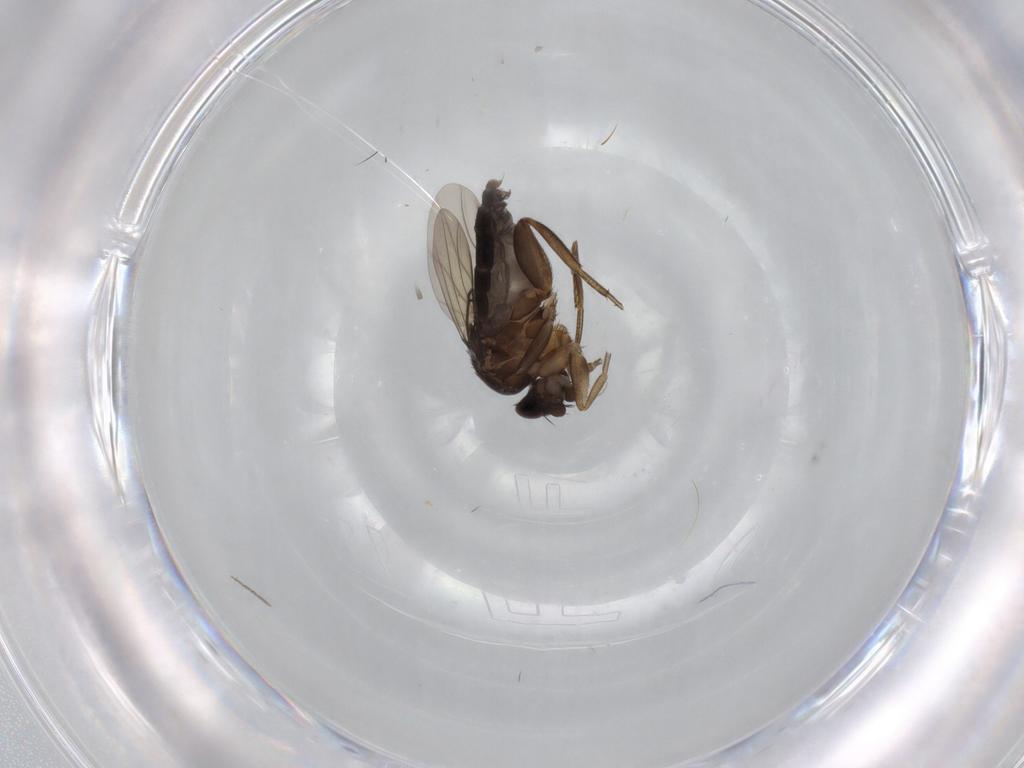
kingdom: Animalia
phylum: Arthropoda
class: Insecta
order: Diptera
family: Phoridae
